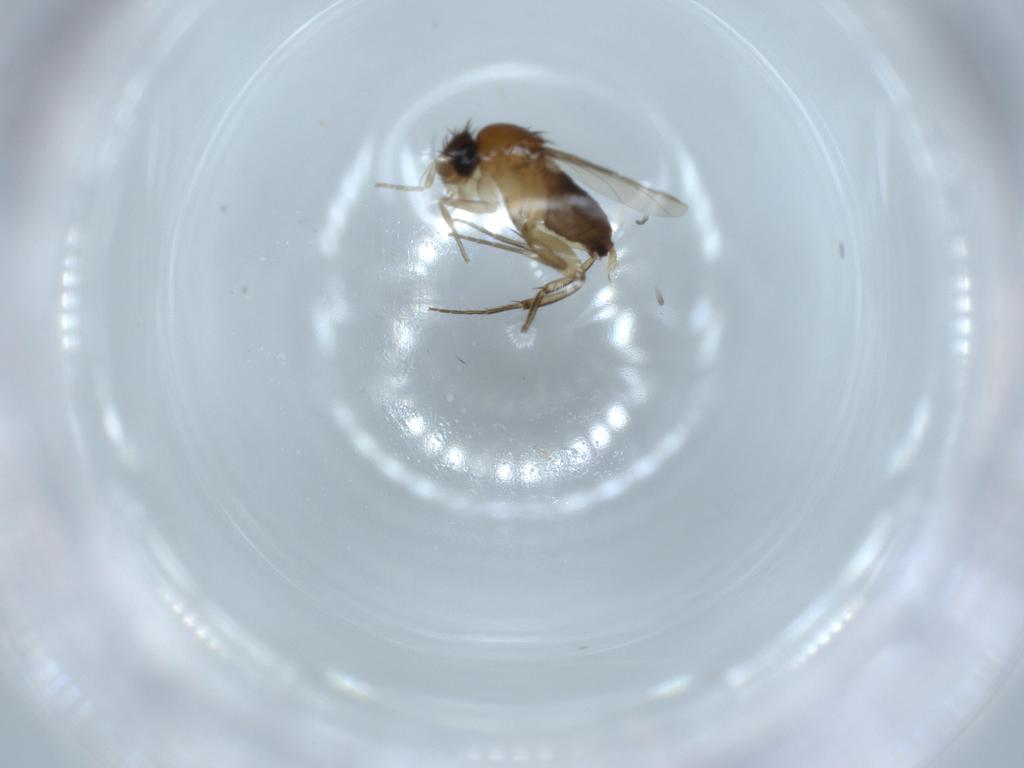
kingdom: Animalia
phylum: Arthropoda
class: Insecta
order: Diptera
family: Sciaridae
